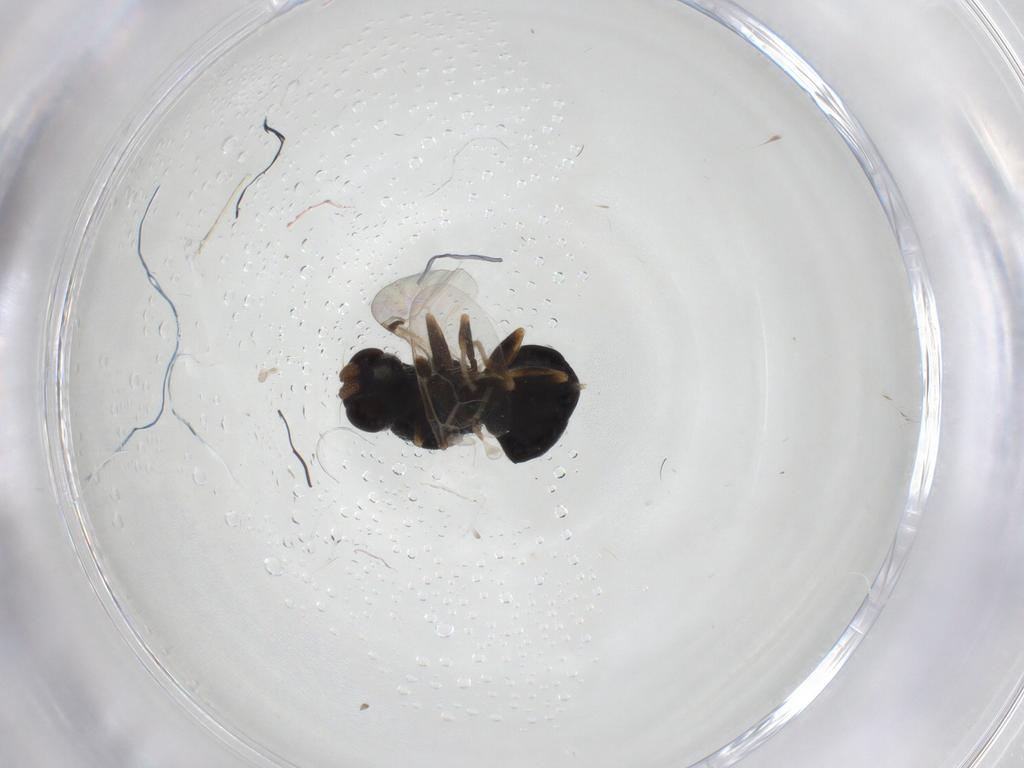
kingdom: Animalia
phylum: Arthropoda
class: Insecta
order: Diptera
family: Stratiomyidae
